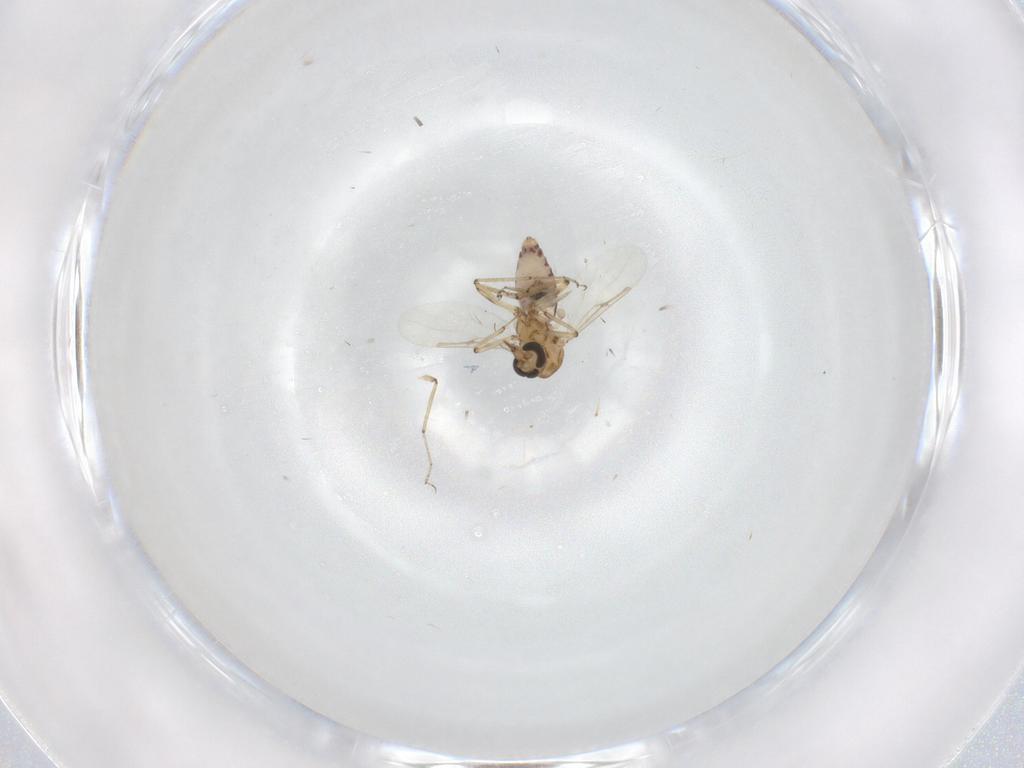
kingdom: Animalia
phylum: Arthropoda
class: Insecta
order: Diptera
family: Ceratopogonidae
